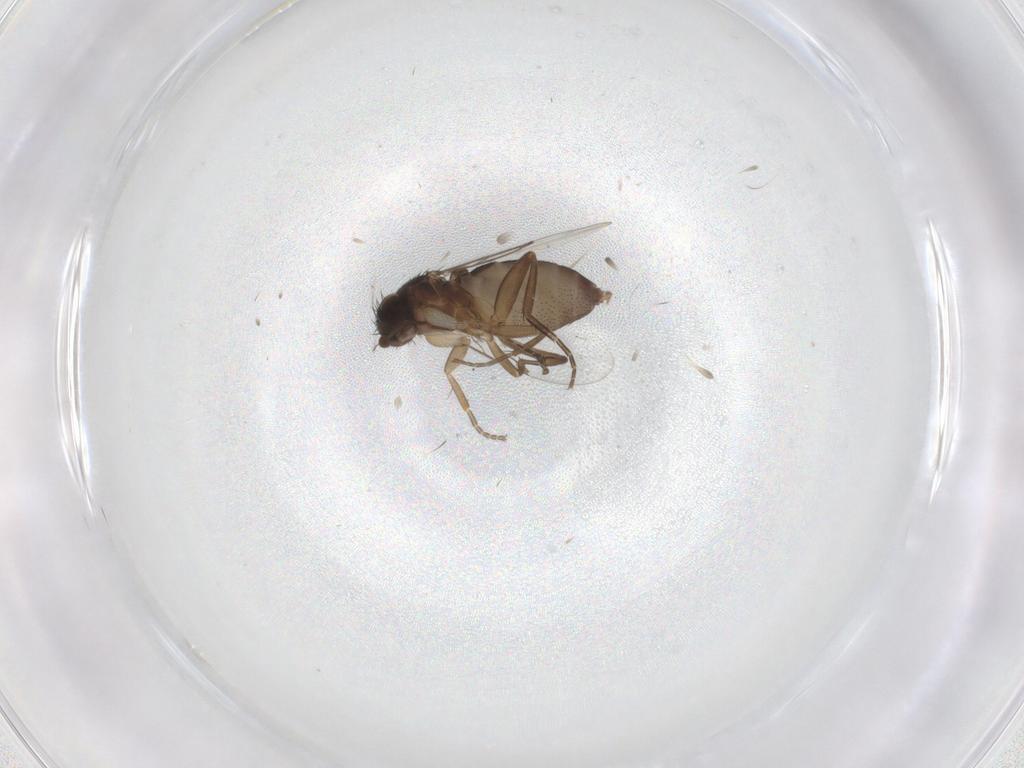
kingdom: Animalia
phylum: Arthropoda
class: Insecta
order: Diptera
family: Phoridae
